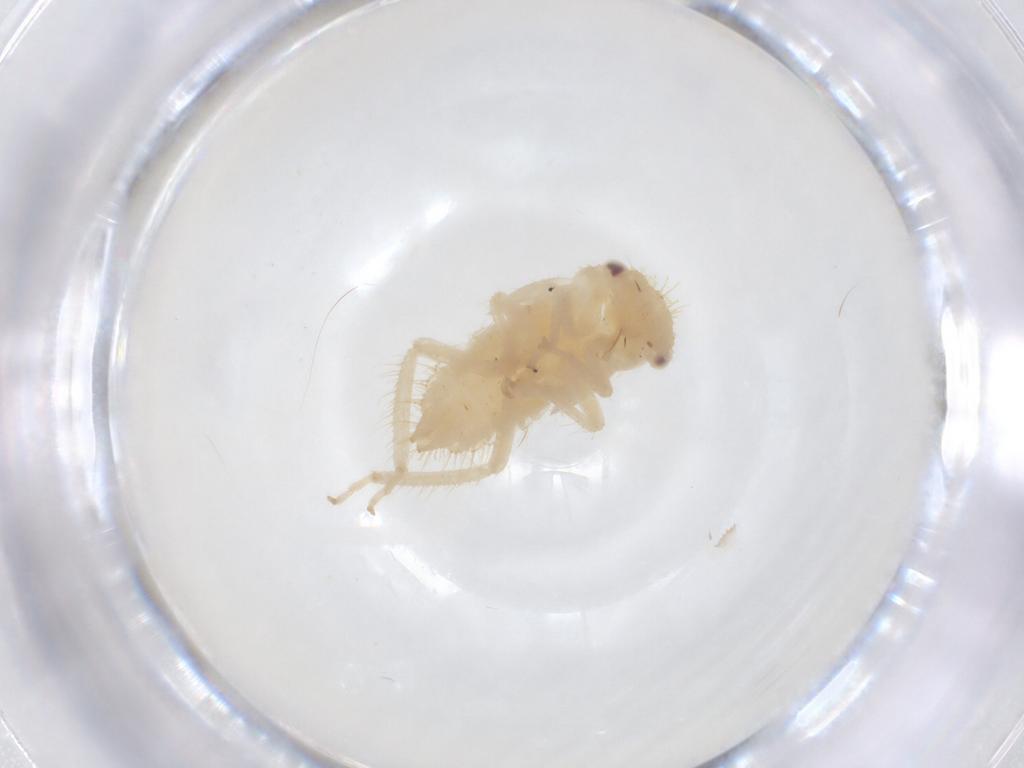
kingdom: Animalia
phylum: Arthropoda
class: Insecta
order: Hemiptera
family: Cicadellidae
